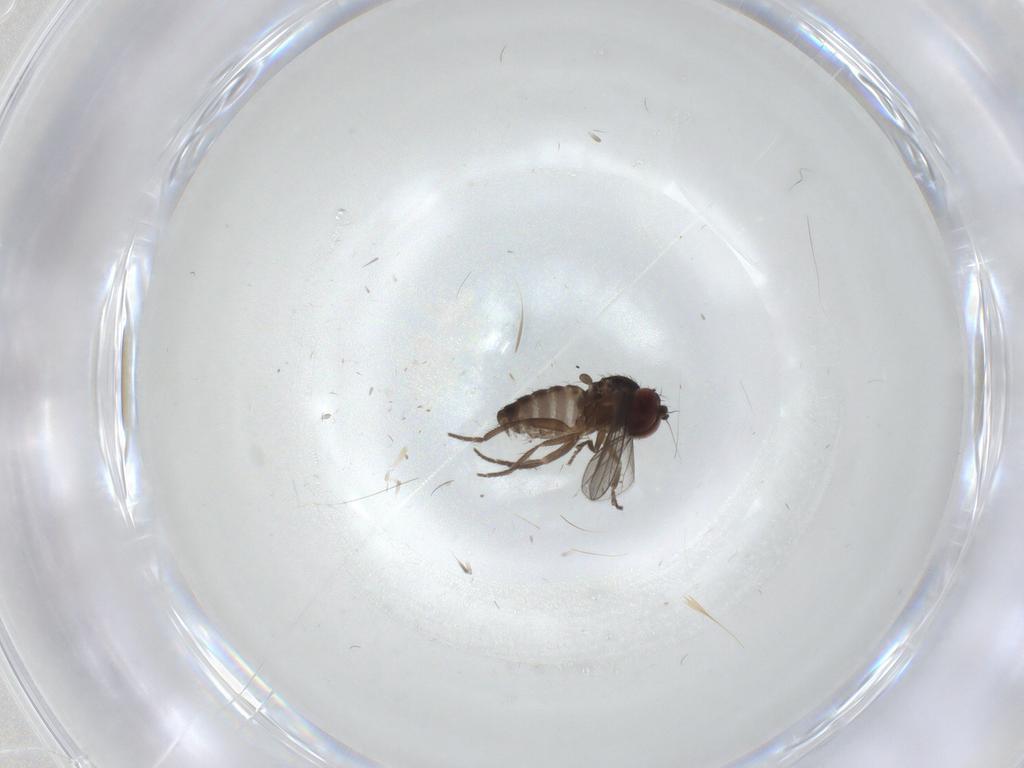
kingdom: Animalia
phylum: Arthropoda
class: Insecta
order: Diptera
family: Dolichopodidae
